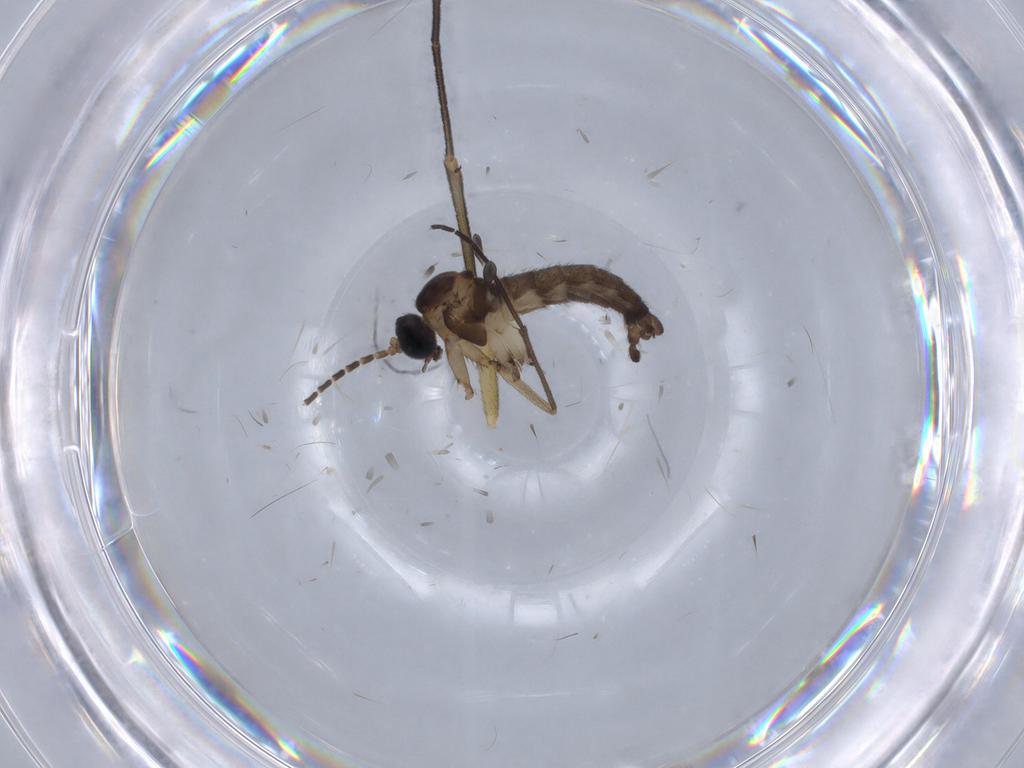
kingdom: Animalia
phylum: Arthropoda
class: Insecta
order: Diptera
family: Sciaridae
